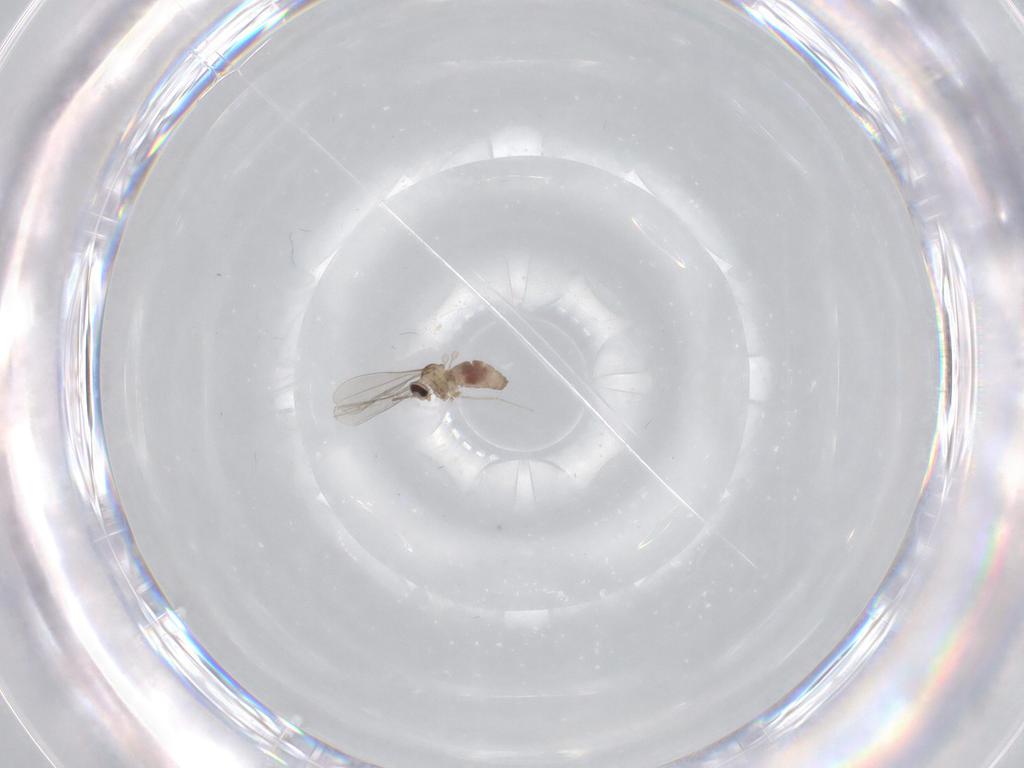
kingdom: Animalia
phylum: Arthropoda
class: Insecta
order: Diptera
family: Cecidomyiidae
